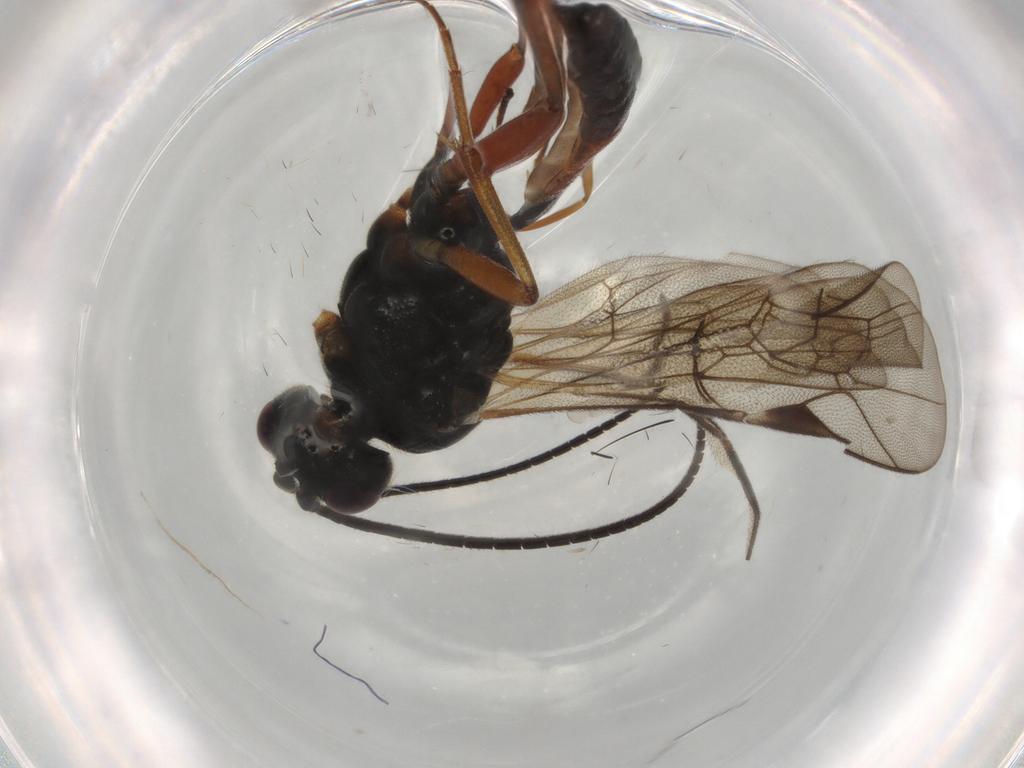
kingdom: Animalia
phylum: Arthropoda
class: Insecta
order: Hymenoptera
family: Formicidae
